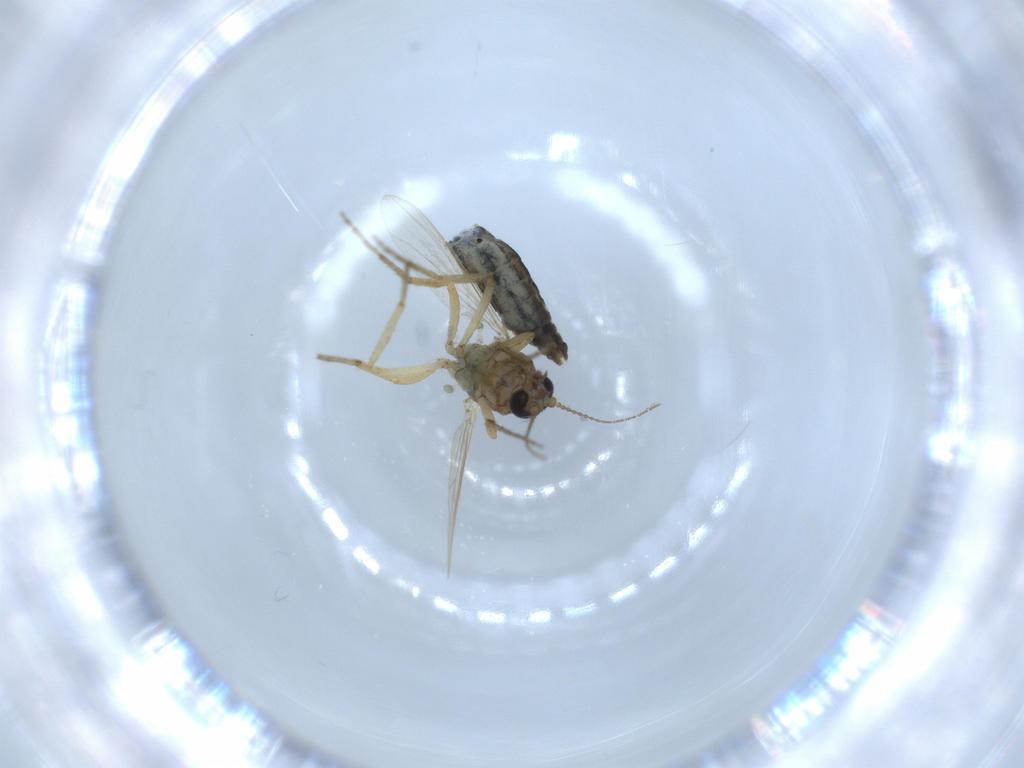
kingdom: Animalia
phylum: Arthropoda
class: Insecta
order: Diptera
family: Ceratopogonidae
